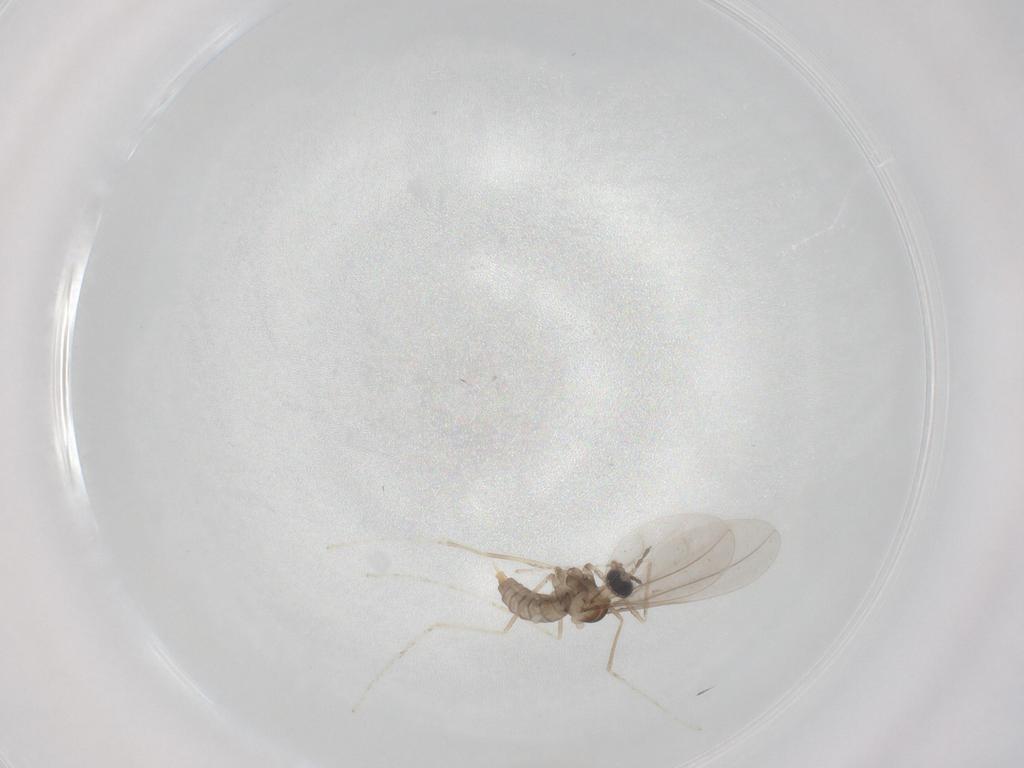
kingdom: Animalia
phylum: Arthropoda
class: Insecta
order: Diptera
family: Cecidomyiidae
